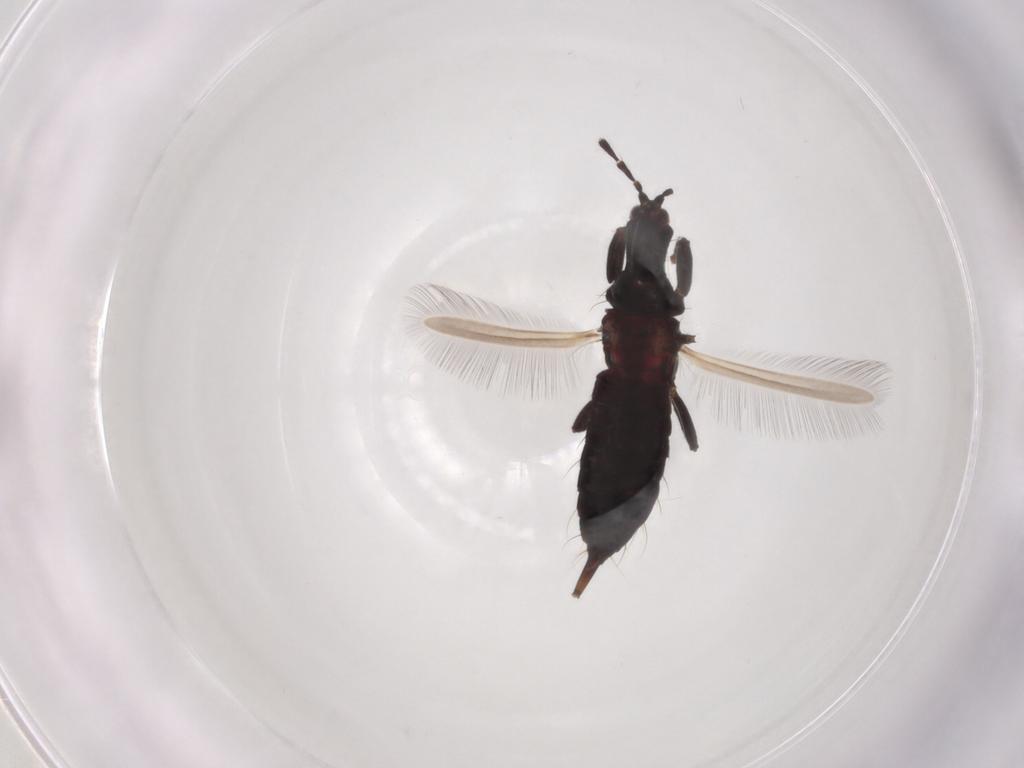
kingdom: Animalia
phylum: Arthropoda
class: Insecta
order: Thysanoptera
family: Phlaeothripidae
